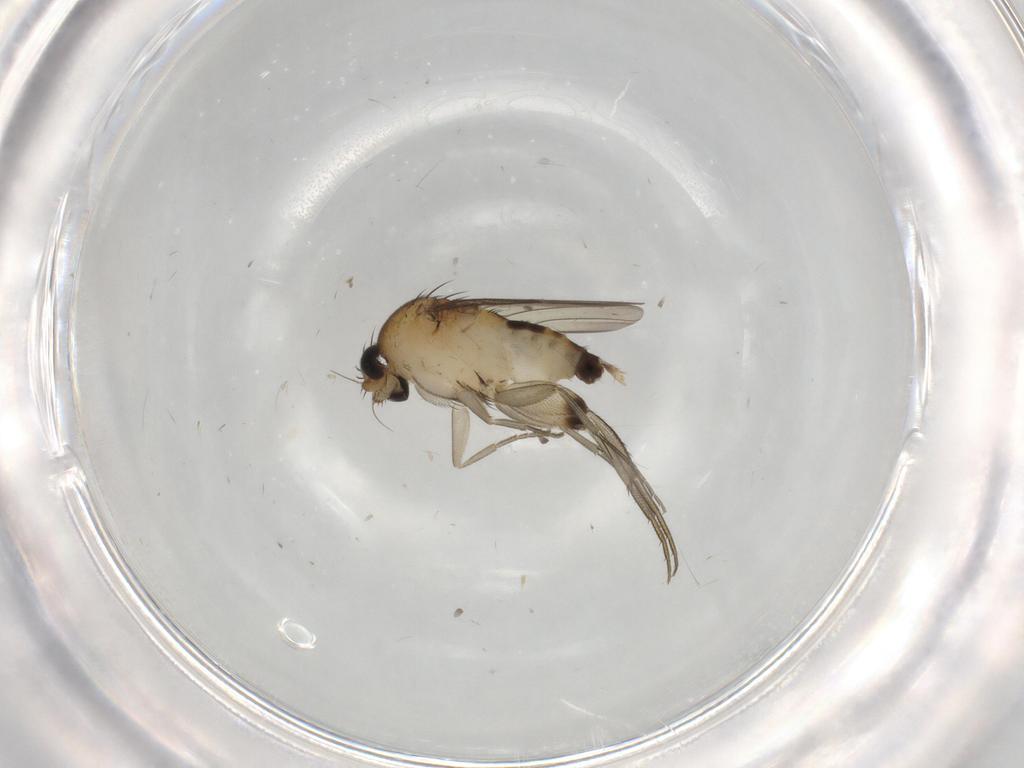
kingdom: Animalia
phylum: Arthropoda
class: Insecta
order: Diptera
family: Phoridae
